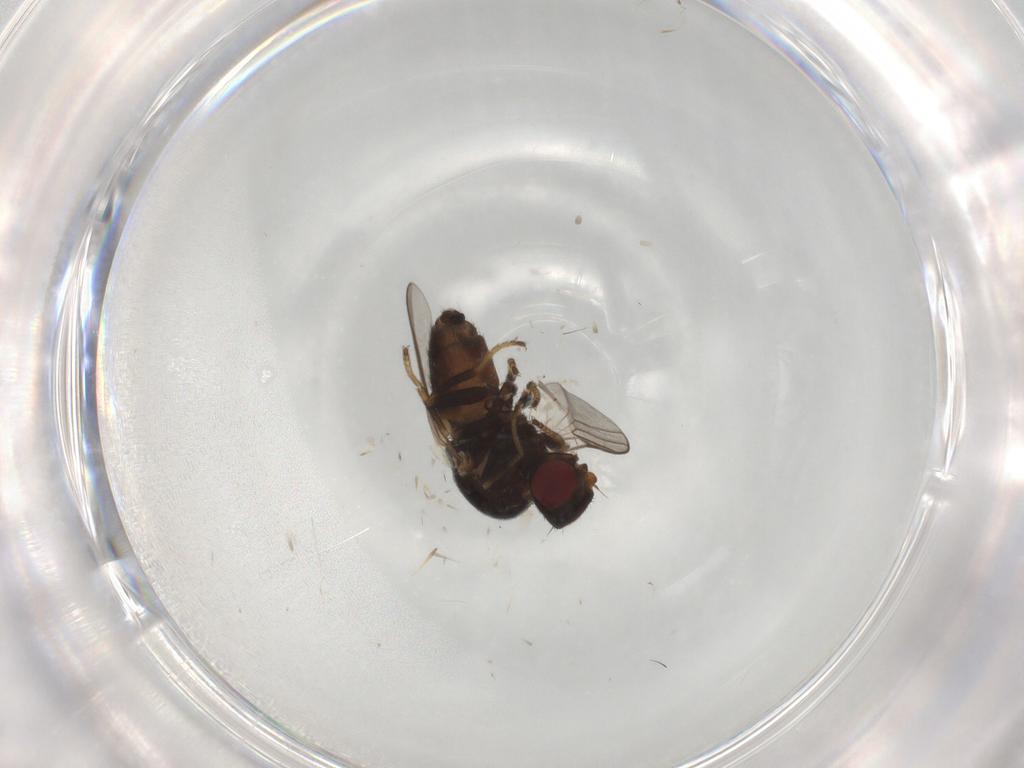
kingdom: Animalia
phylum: Arthropoda
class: Insecta
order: Diptera
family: Chloropidae
